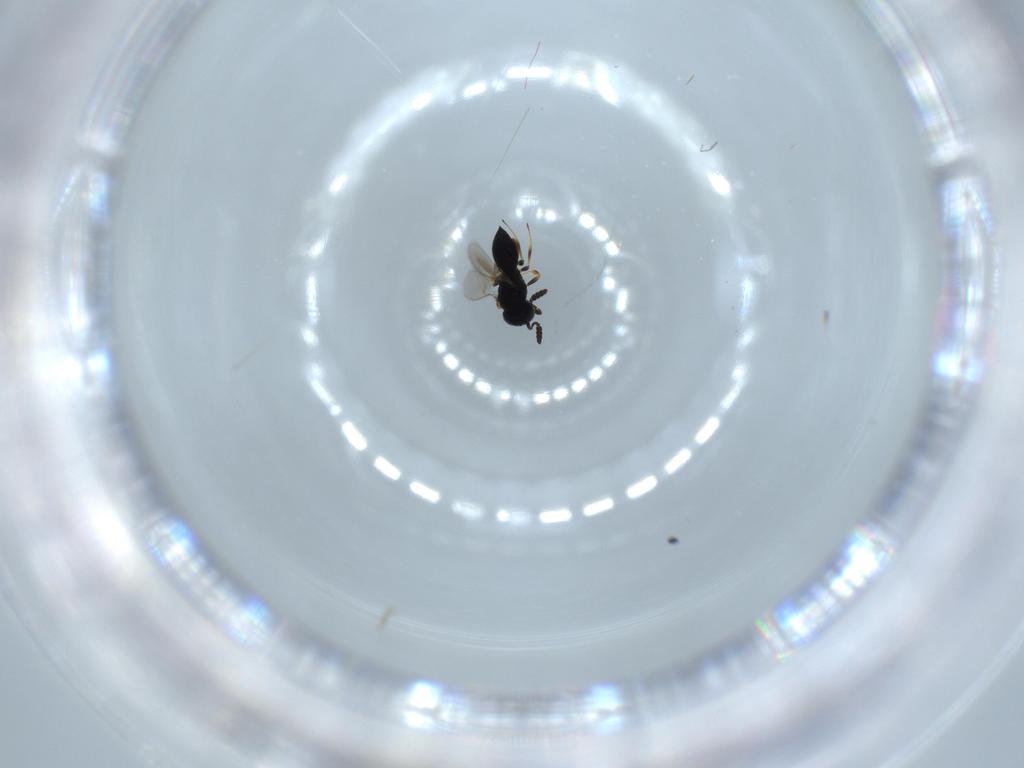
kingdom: Animalia
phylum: Arthropoda
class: Insecta
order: Hymenoptera
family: Scelionidae
